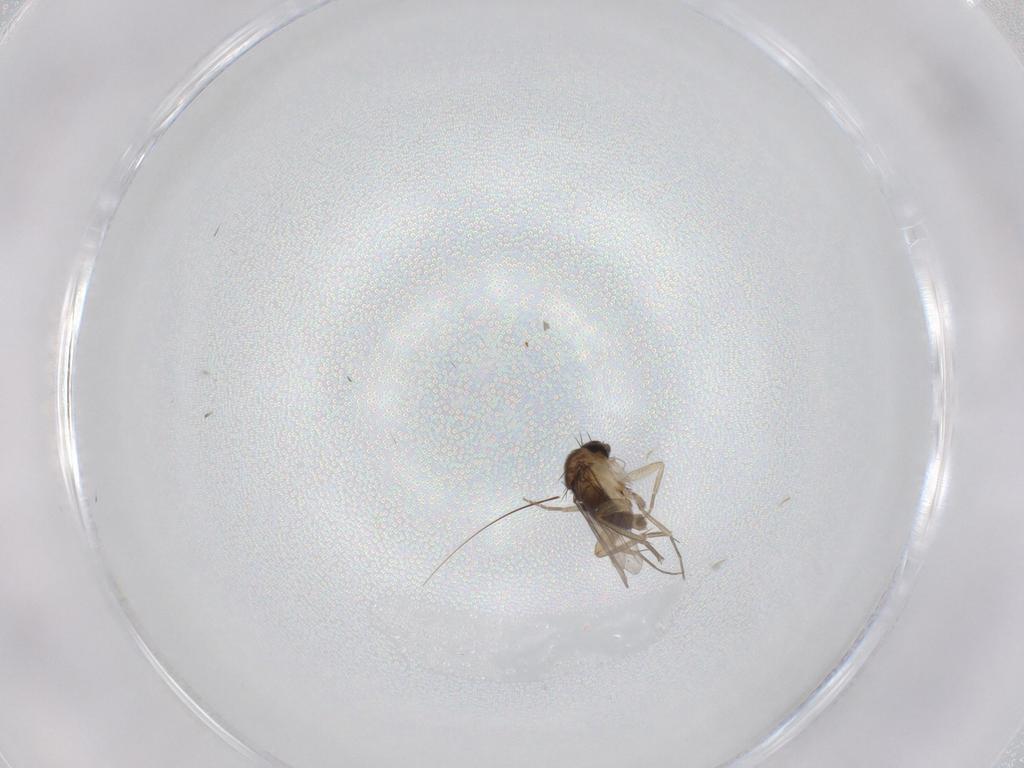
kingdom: Animalia
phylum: Arthropoda
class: Insecta
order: Diptera
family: Phoridae
